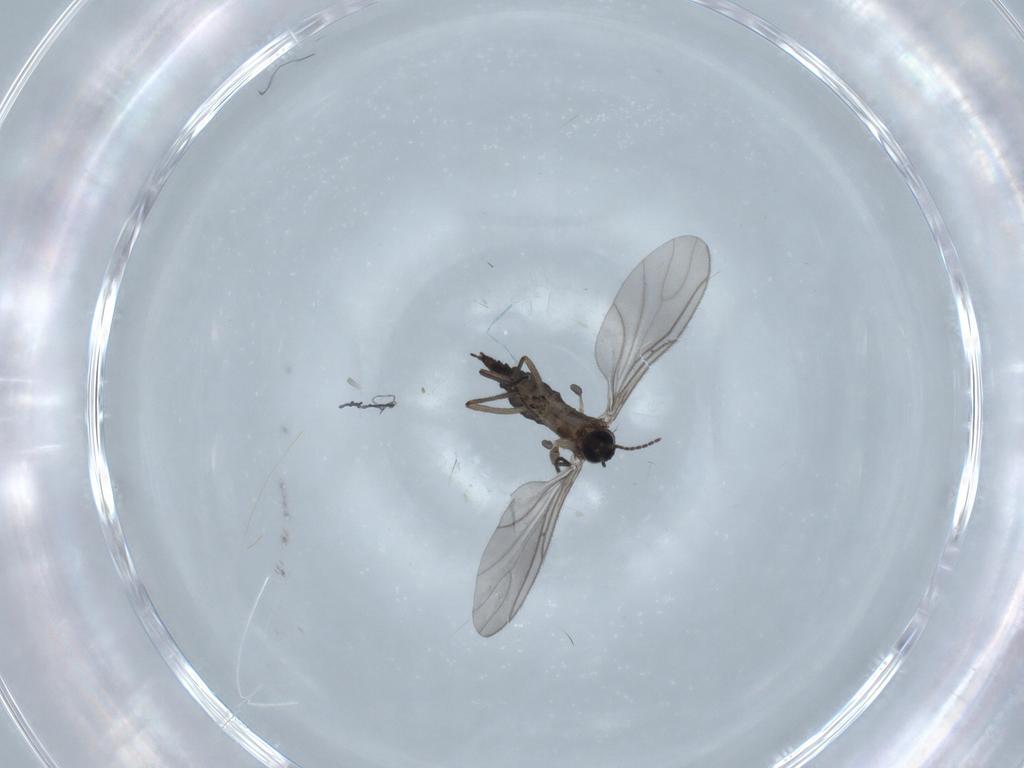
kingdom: Animalia
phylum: Arthropoda
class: Insecta
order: Diptera
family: Sciaridae
